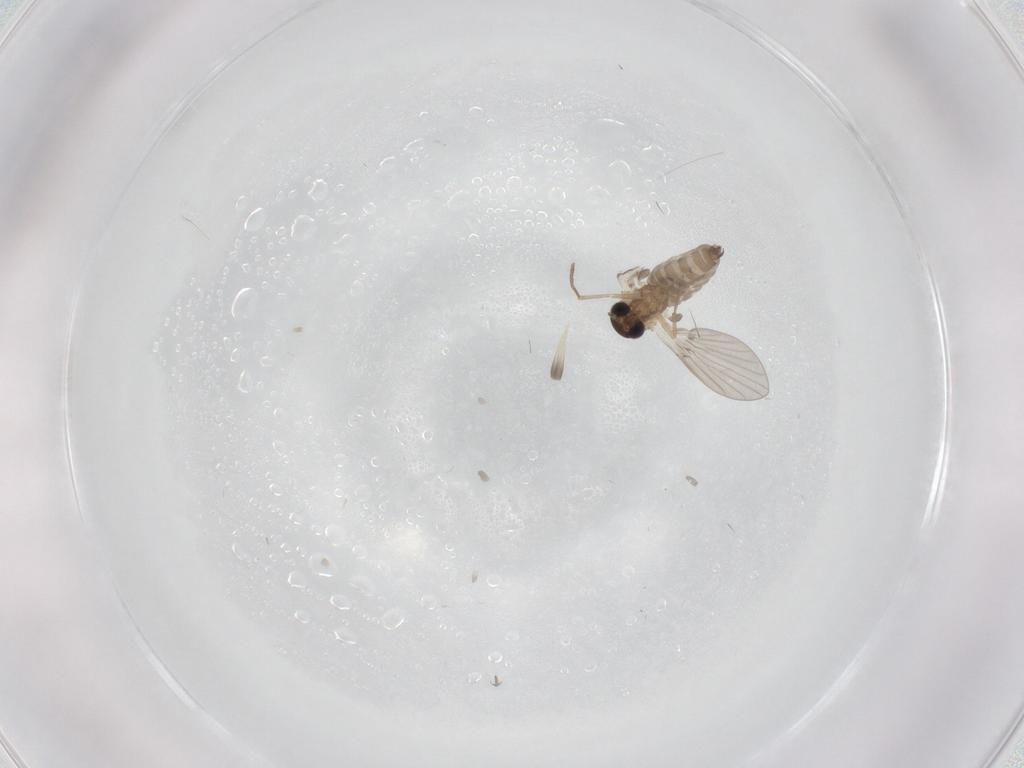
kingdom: Animalia
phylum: Arthropoda
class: Insecta
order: Diptera
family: Limoniidae
